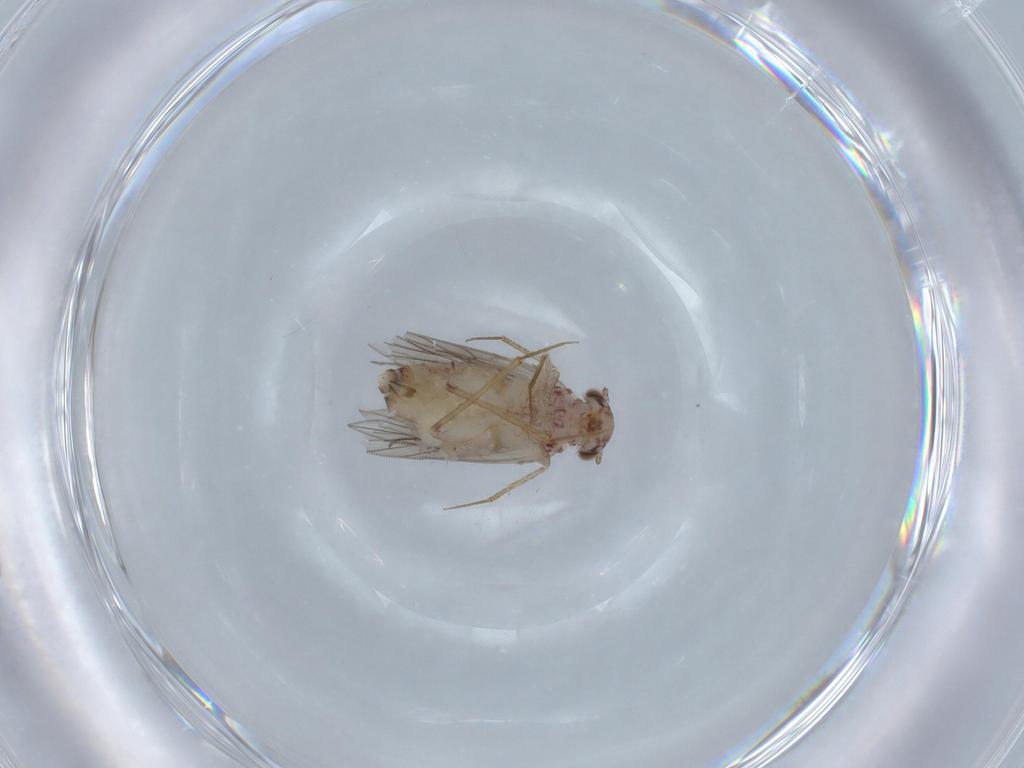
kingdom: Animalia
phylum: Arthropoda
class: Insecta
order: Psocodea
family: Lepidopsocidae
